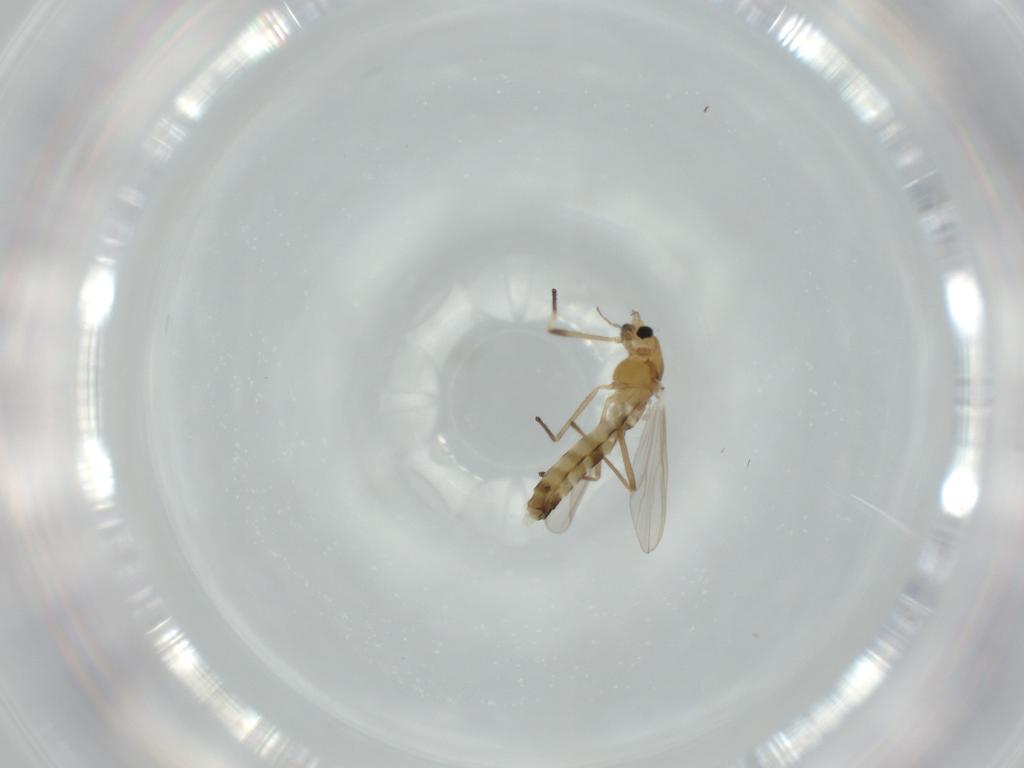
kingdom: Animalia
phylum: Arthropoda
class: Insecta
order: Diptera
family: Chironomidae
